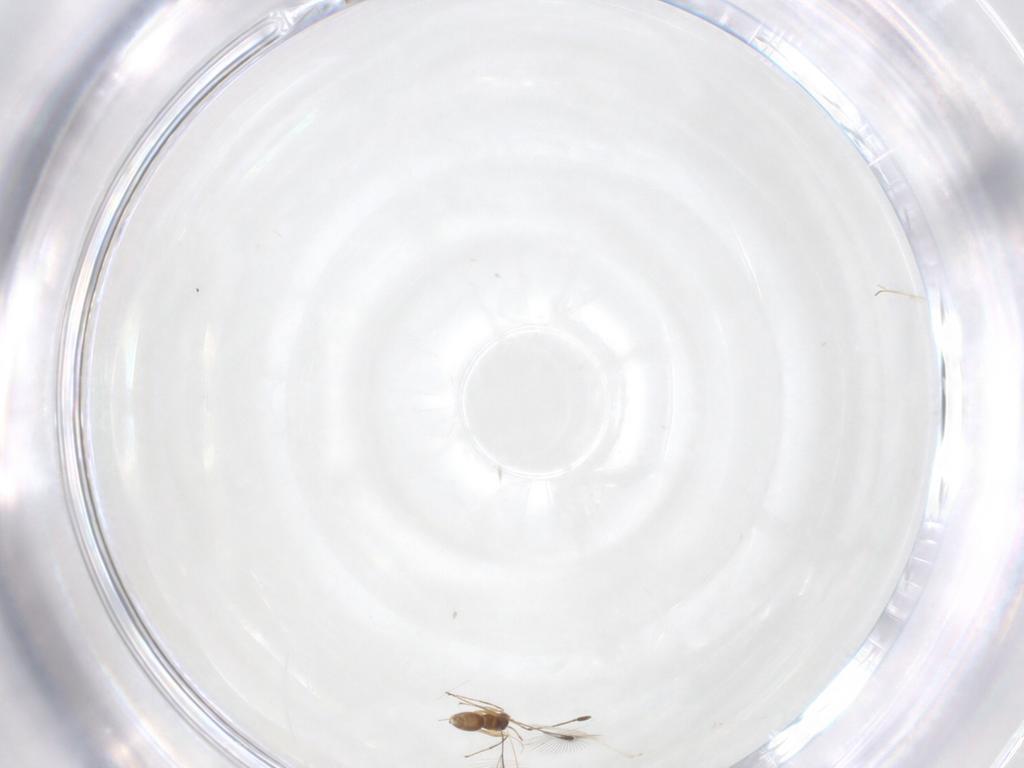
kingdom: Animalia
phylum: Arthropoda
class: Insecta
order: Hymenoptera
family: Mymaridae
